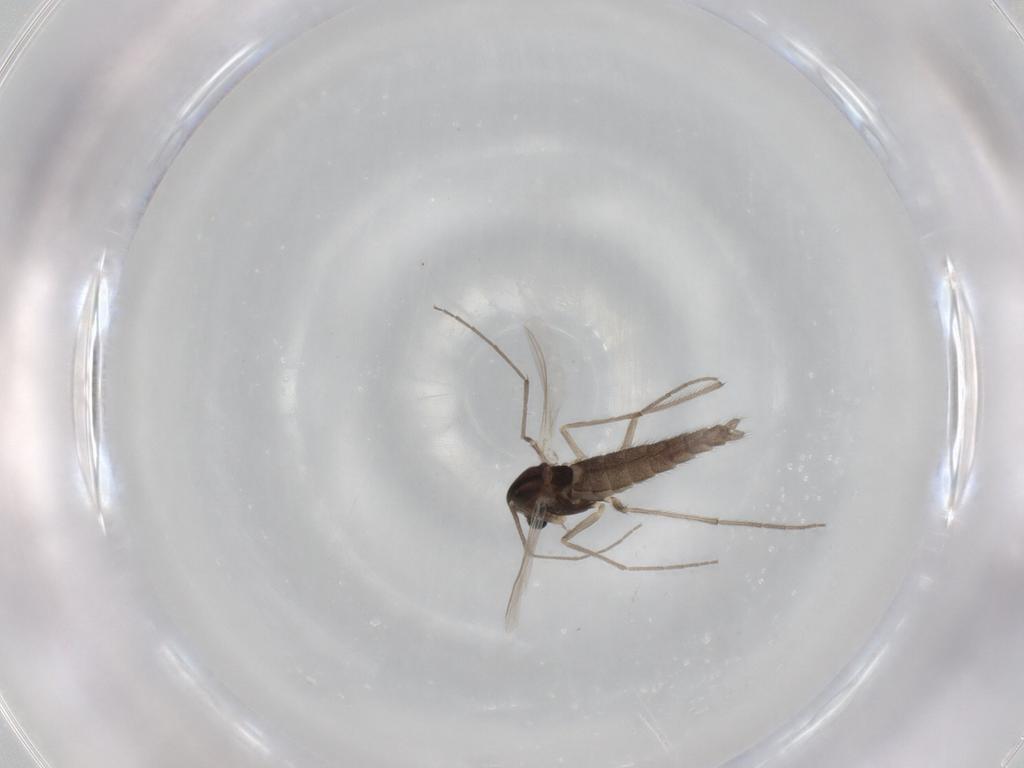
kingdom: Animalia
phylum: Arthropoda
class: Insecta
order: Diptera
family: Chironomidae
